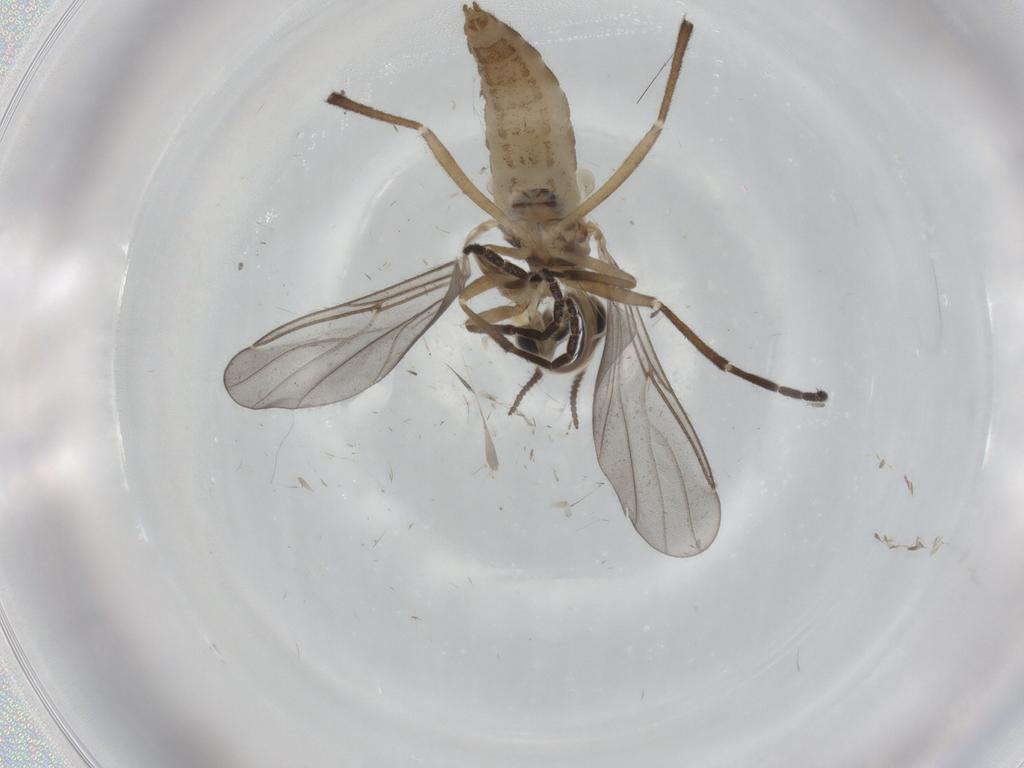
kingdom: Animalia
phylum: Arthropoda
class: Insecta
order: Diptera
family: Cecidomyiidae
